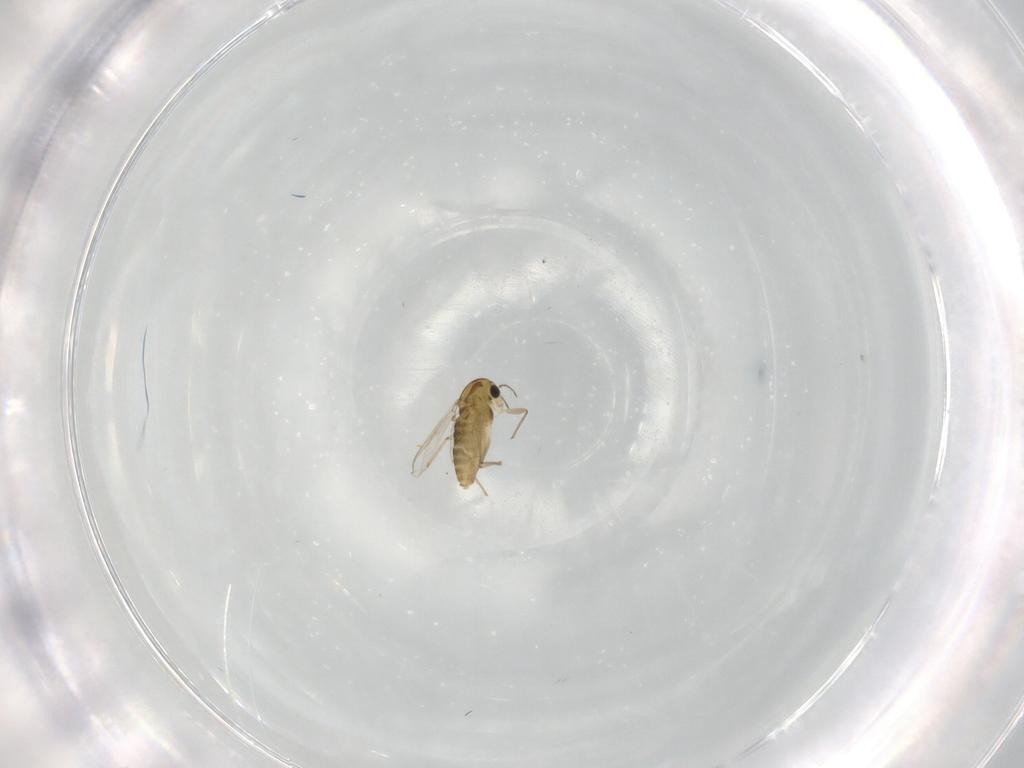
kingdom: Animalia
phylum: Arthropoda
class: Insecta
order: Diptera
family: Chironomidae
